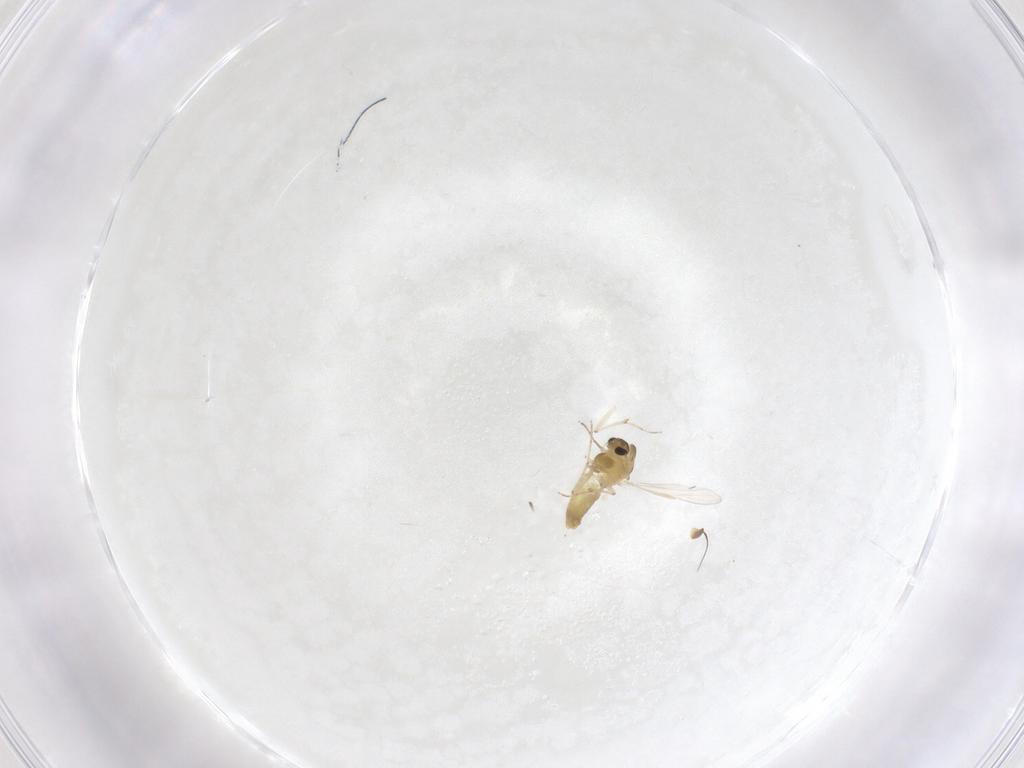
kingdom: Animalia
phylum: Arthropoda
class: Insecta
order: Diptera
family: Chironomidae
